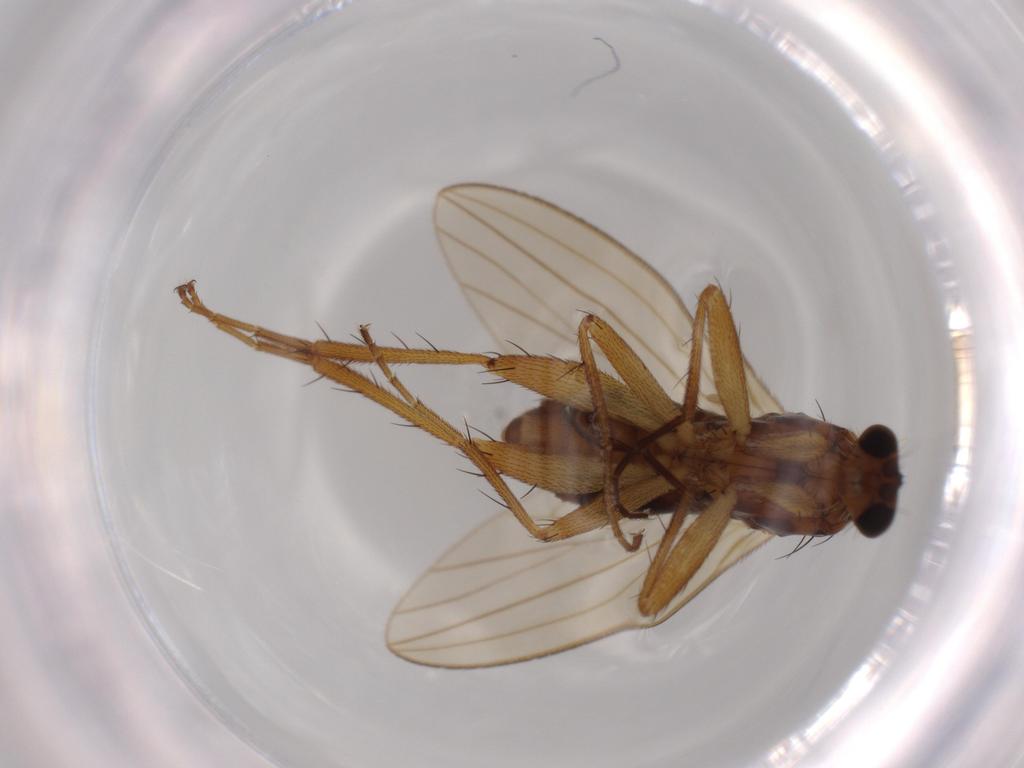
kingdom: Animalia
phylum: Arthropoda
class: Insecta
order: Diptera
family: Lonchopteridae
